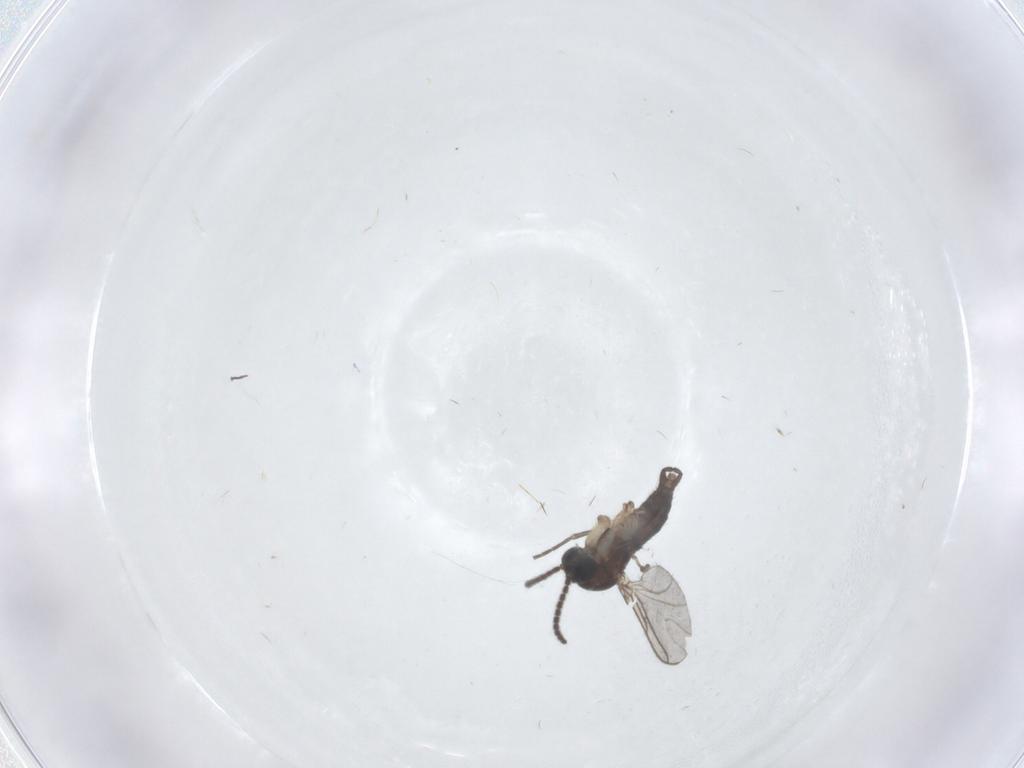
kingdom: Animalia
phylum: Arthropoda
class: Insecta
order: Diptera
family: Sciaridae
